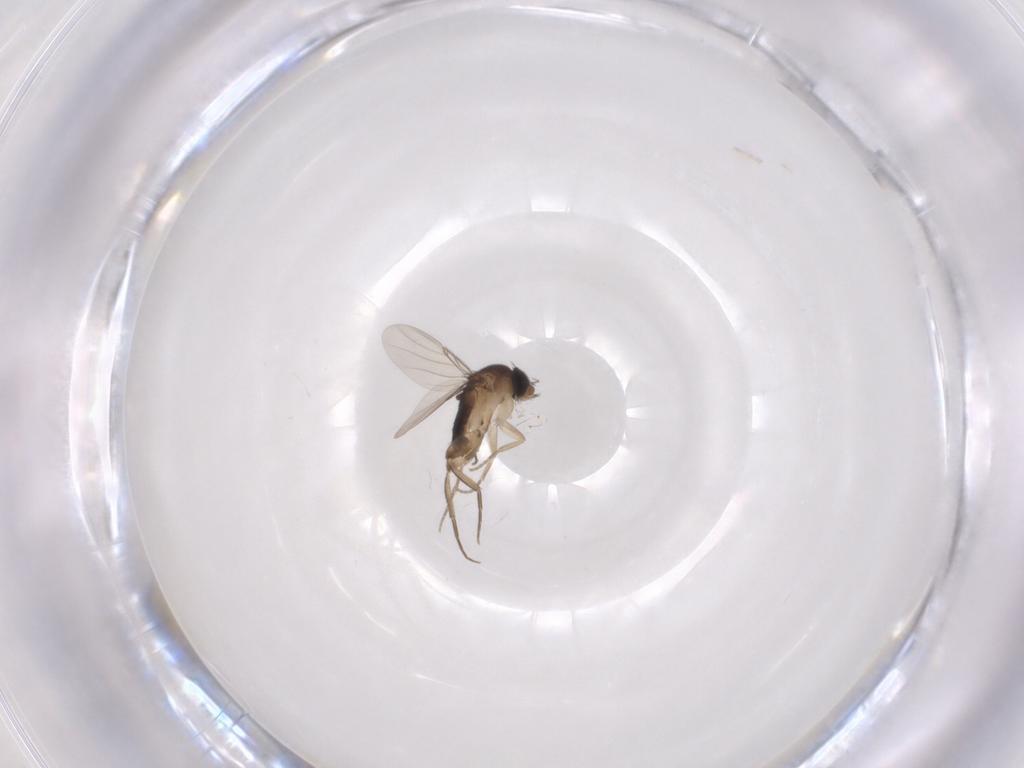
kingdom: Animalia
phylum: Arthropoda
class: Insecta
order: Diptera
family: Phoridae
